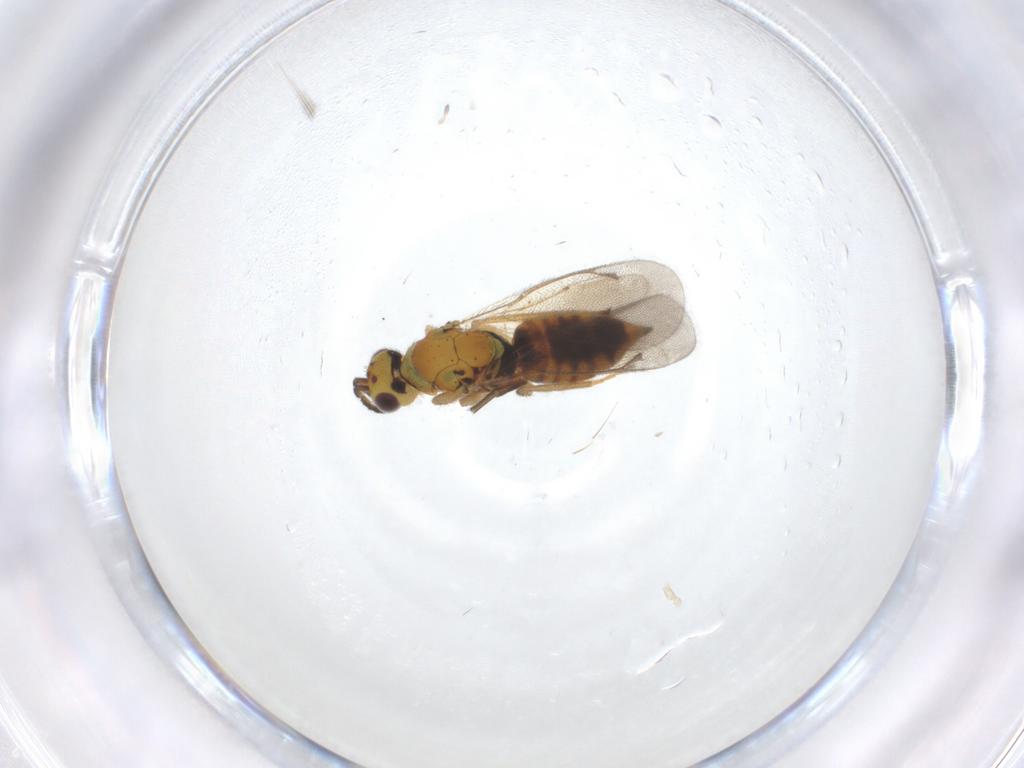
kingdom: Animalia
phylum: Arthropoda
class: Insecta
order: Hymenoptera
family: Eulophidae
